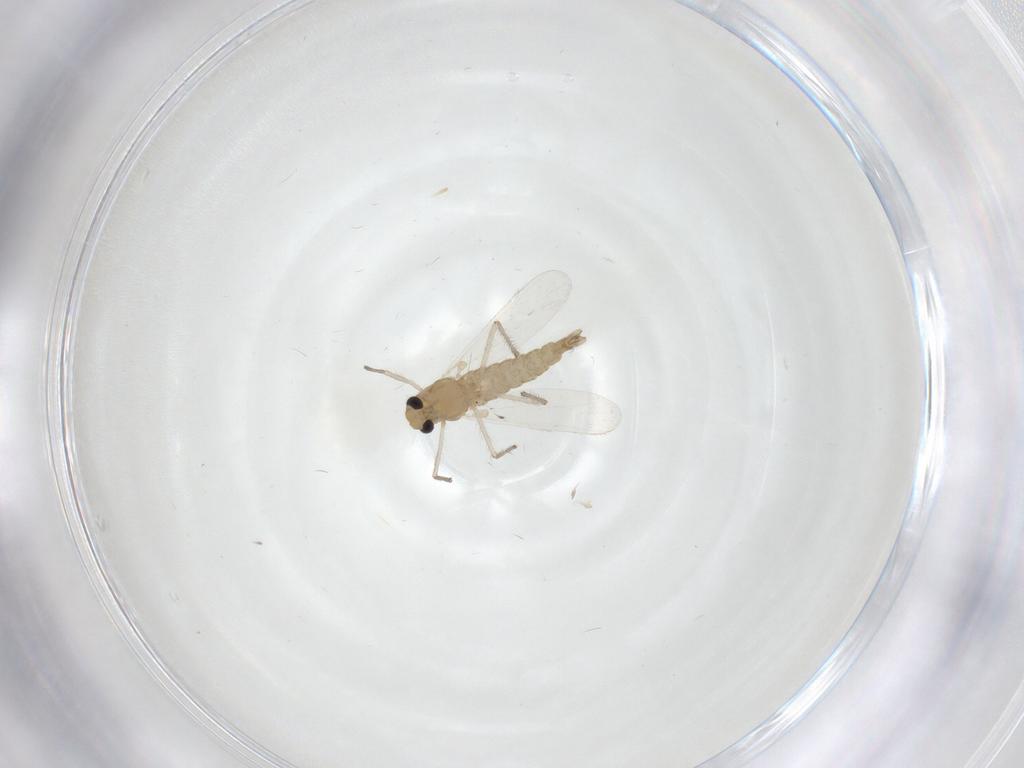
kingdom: Animalia
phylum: Arthropoda
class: Insecta
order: Diptera
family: Chironomidae
